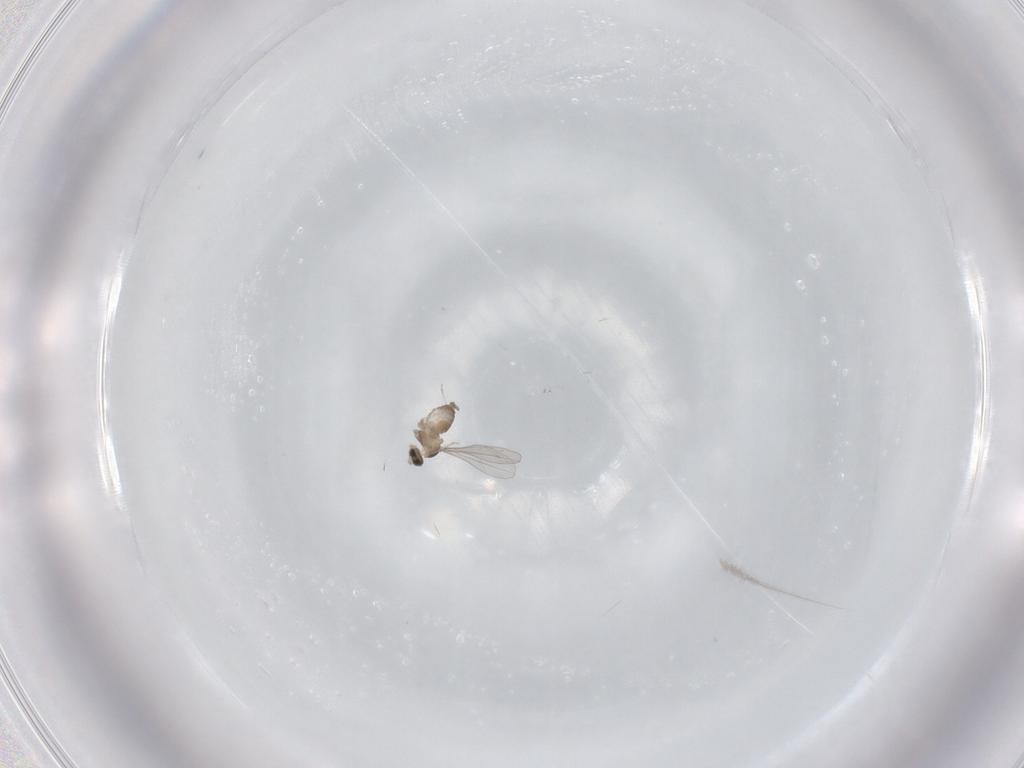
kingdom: Animalia
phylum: Arthropoda
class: Insecta
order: Diptera
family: Cecidomyiidae
